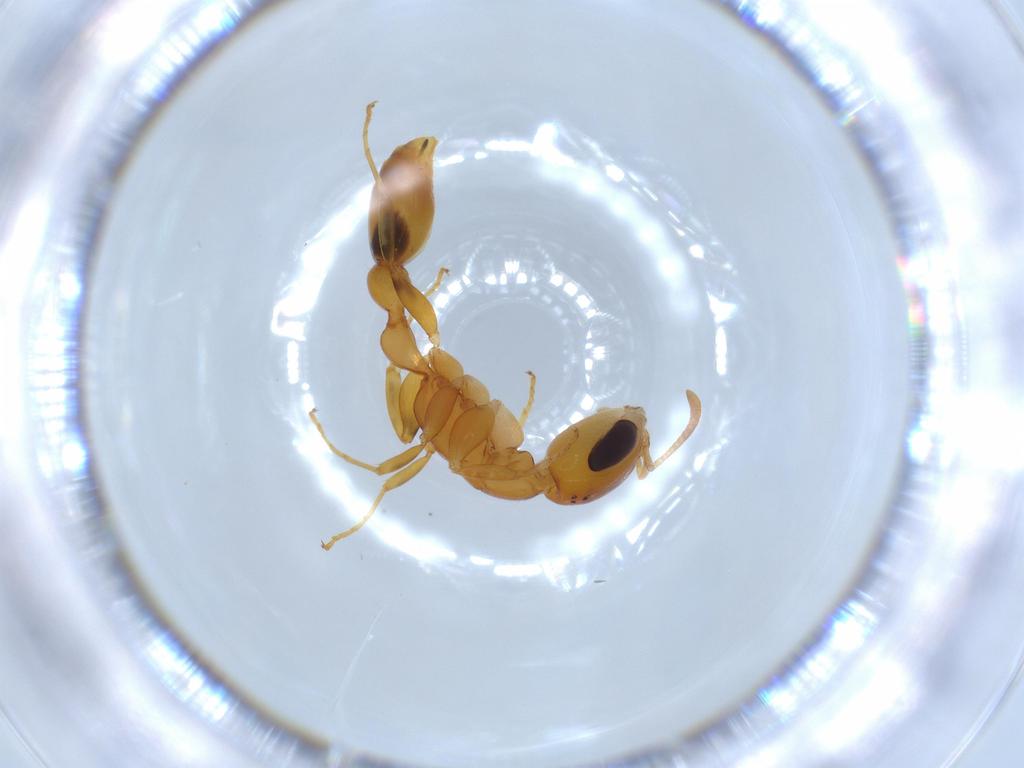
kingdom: Animalia
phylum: Arthropoda
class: Insecta
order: Hymenoptera
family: Formicidae
